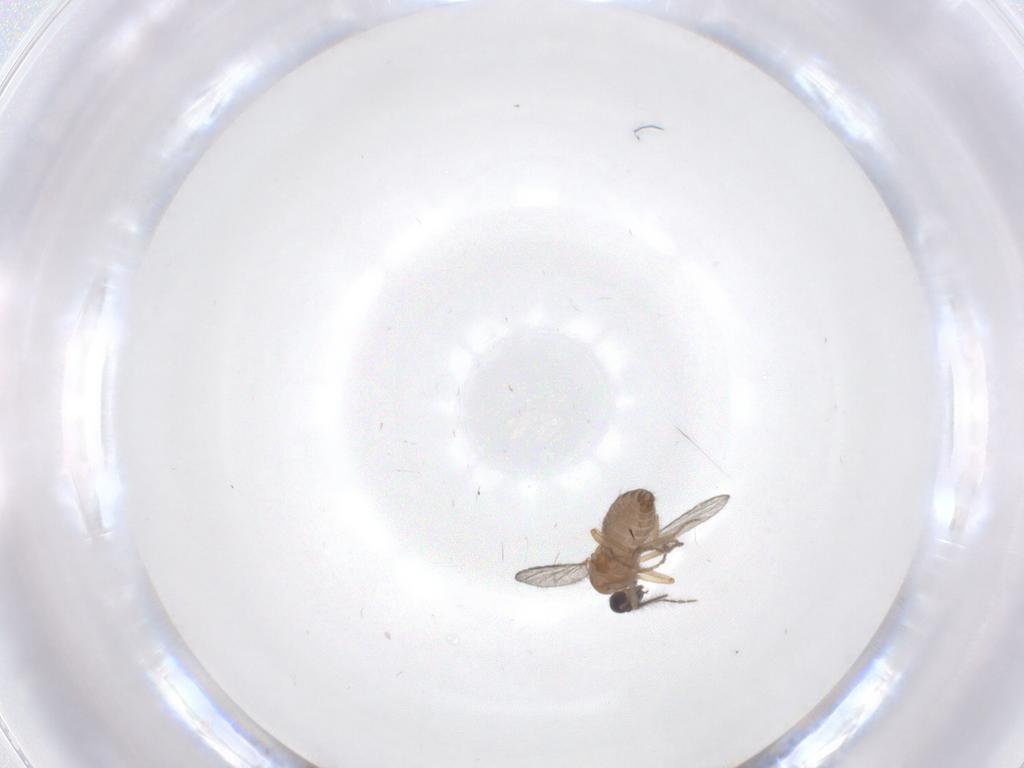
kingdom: Animalia
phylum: Arthropoda
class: Insecta
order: Diptera
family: Ceratopogonidae
